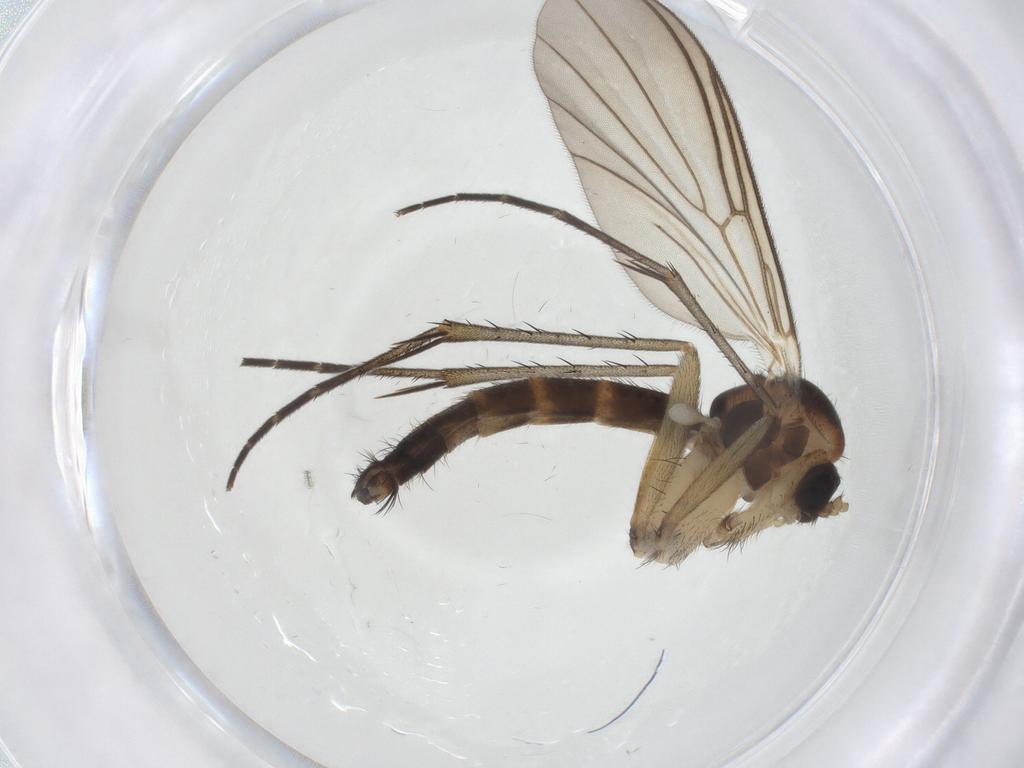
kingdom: Animalia
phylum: Arthropoda
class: Insecta
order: Diptera
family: Mycetophilidae
